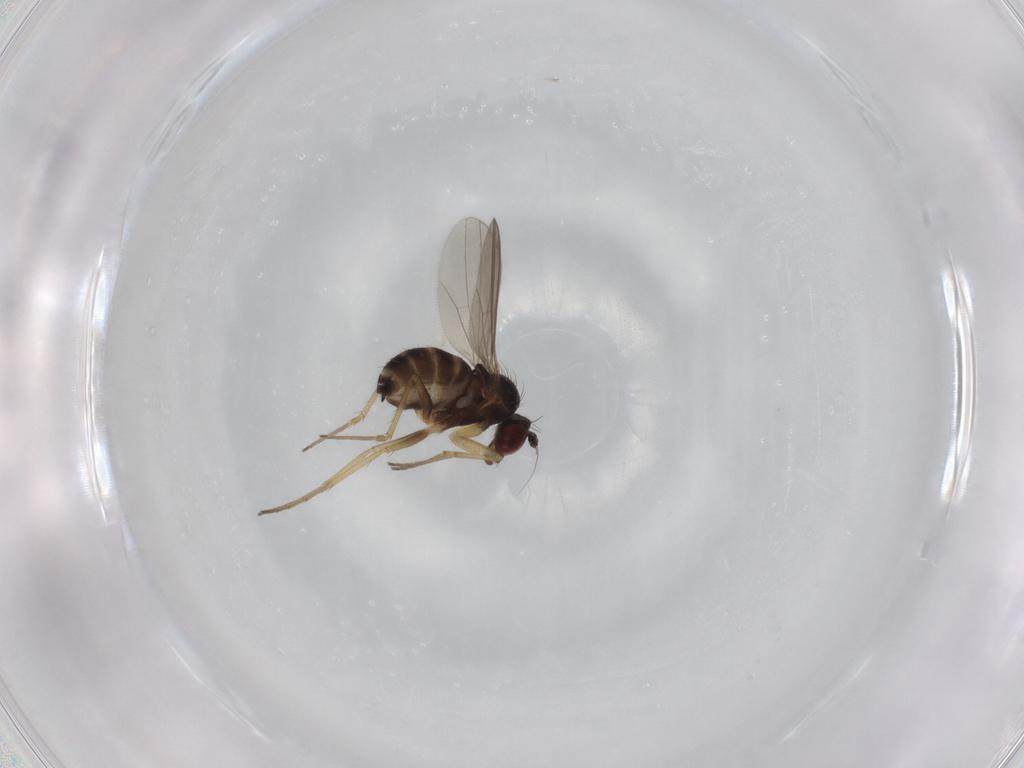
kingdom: Animalia
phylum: Arthropoda
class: Insecta
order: Diptera
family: Dolichopodidae
